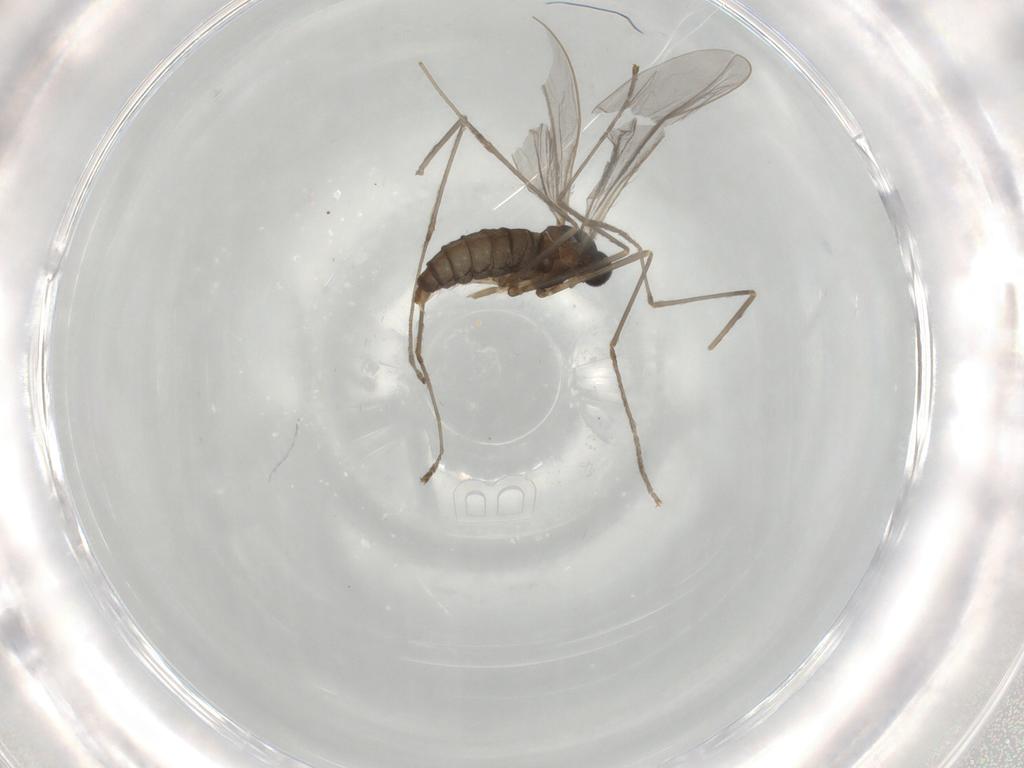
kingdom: Animalia
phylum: Arthropoda
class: Insecta
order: Diptera
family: Cecidomyiidae
